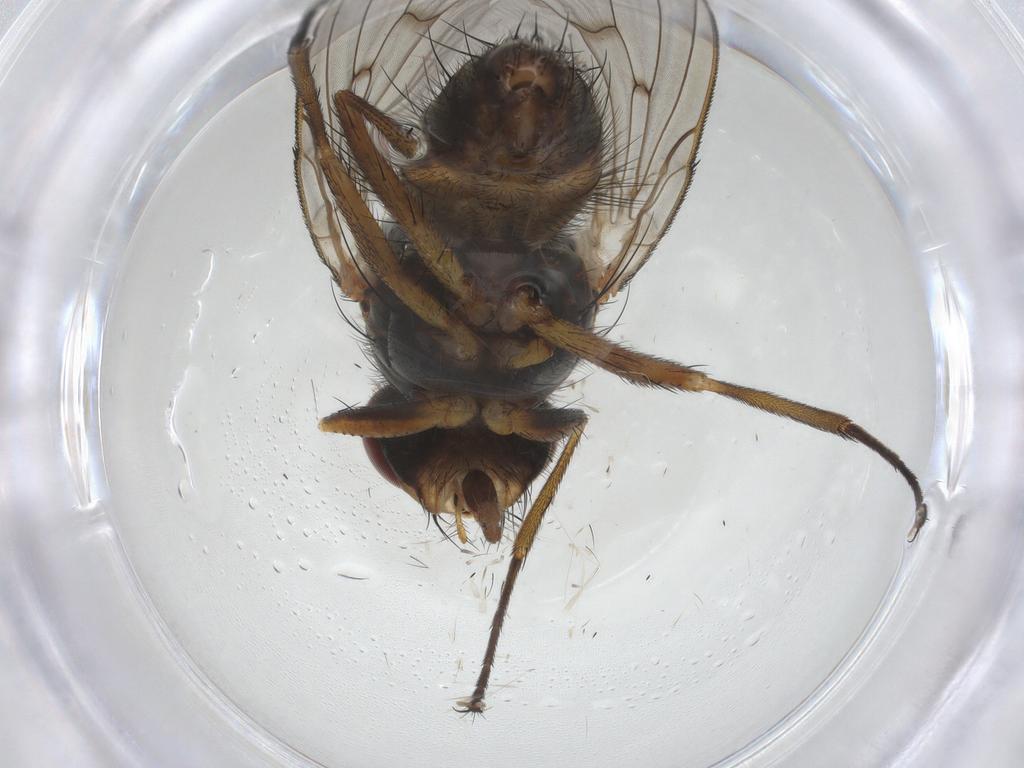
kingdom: Animalia
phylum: Arthropoda
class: Insecta
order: Diptera
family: Anthomyiidae
